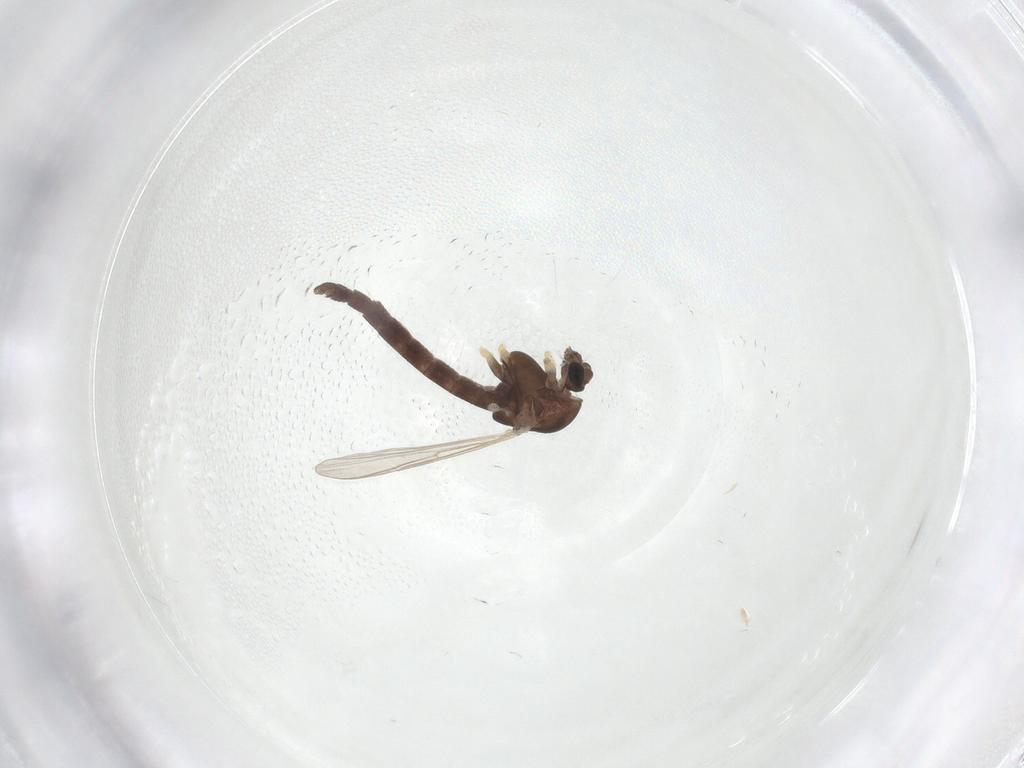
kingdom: Animalia
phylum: Arthropoda
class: Insecta
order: Diptera
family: Chironomidae
